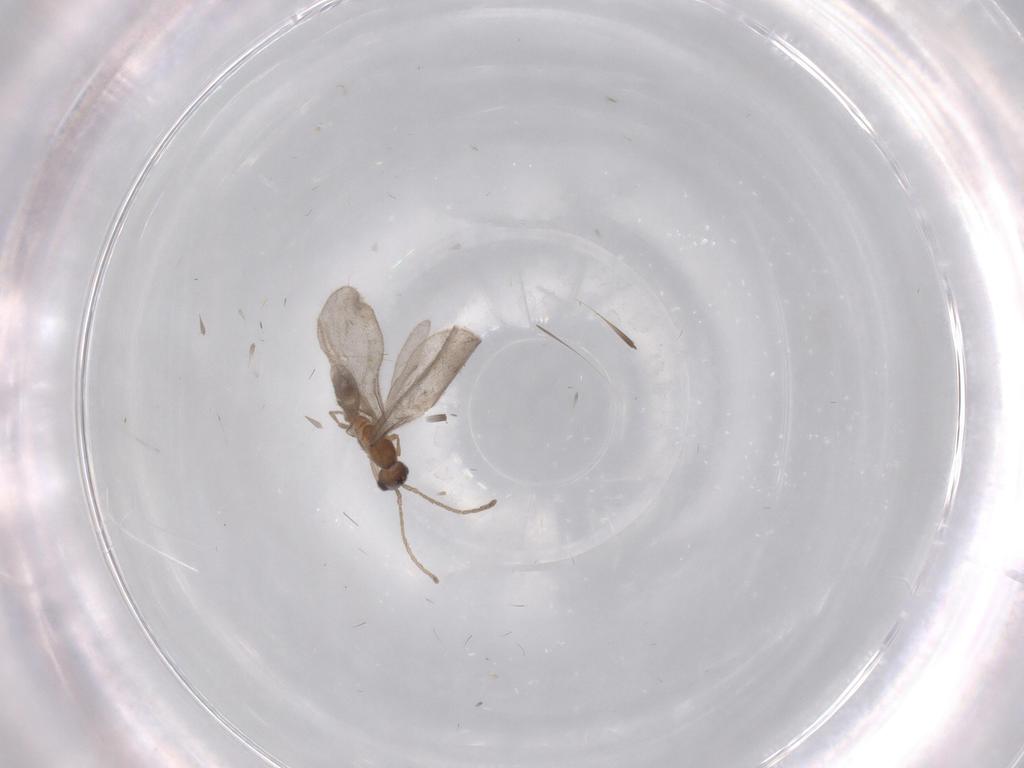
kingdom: Animalia
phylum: Arthropoda
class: Insecta
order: Hymenoptera
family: Formicidae
